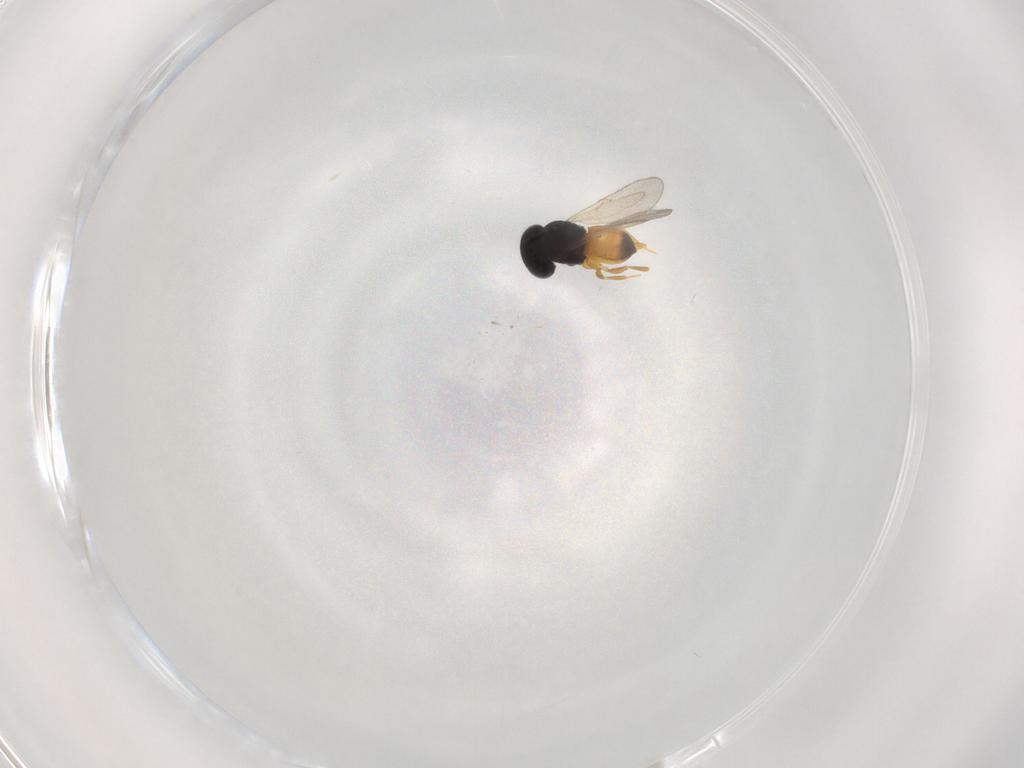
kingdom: Animalia
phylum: Arthropoda
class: Insecta
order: Hymenoptera
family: Scelionidae
